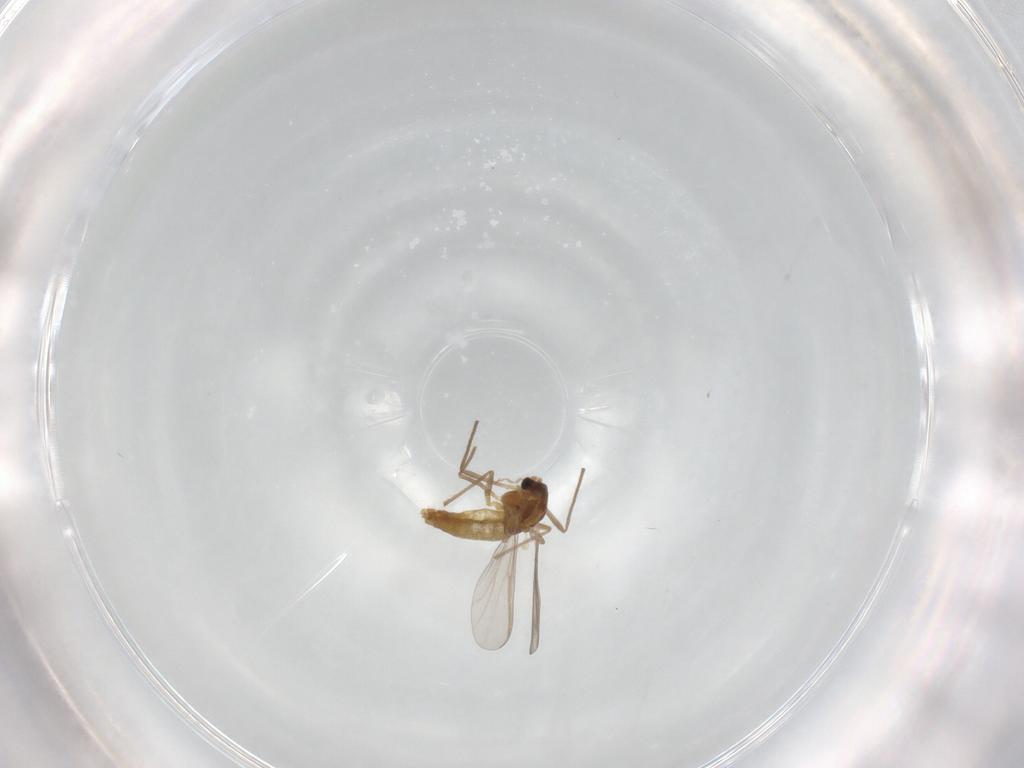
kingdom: Animalia
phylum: Arthropoda
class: Insecta
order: Diptera
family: Chironomidae
